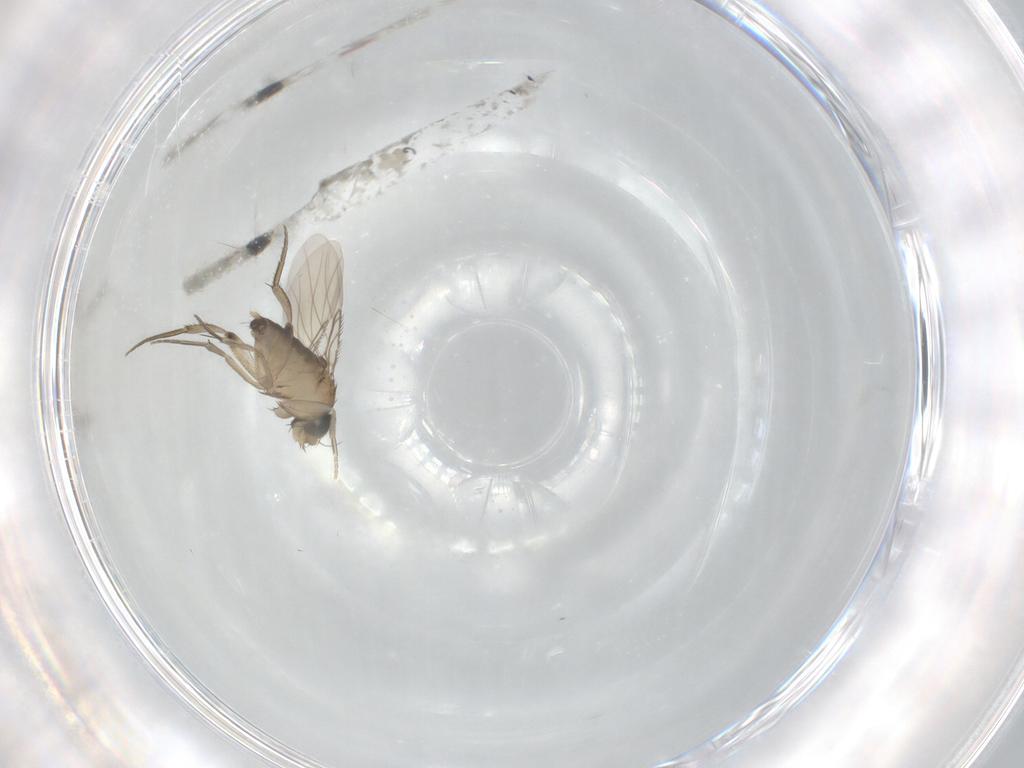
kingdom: Animalia
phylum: Arthropoda
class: Insecta
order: Diptera
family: Phoridae
